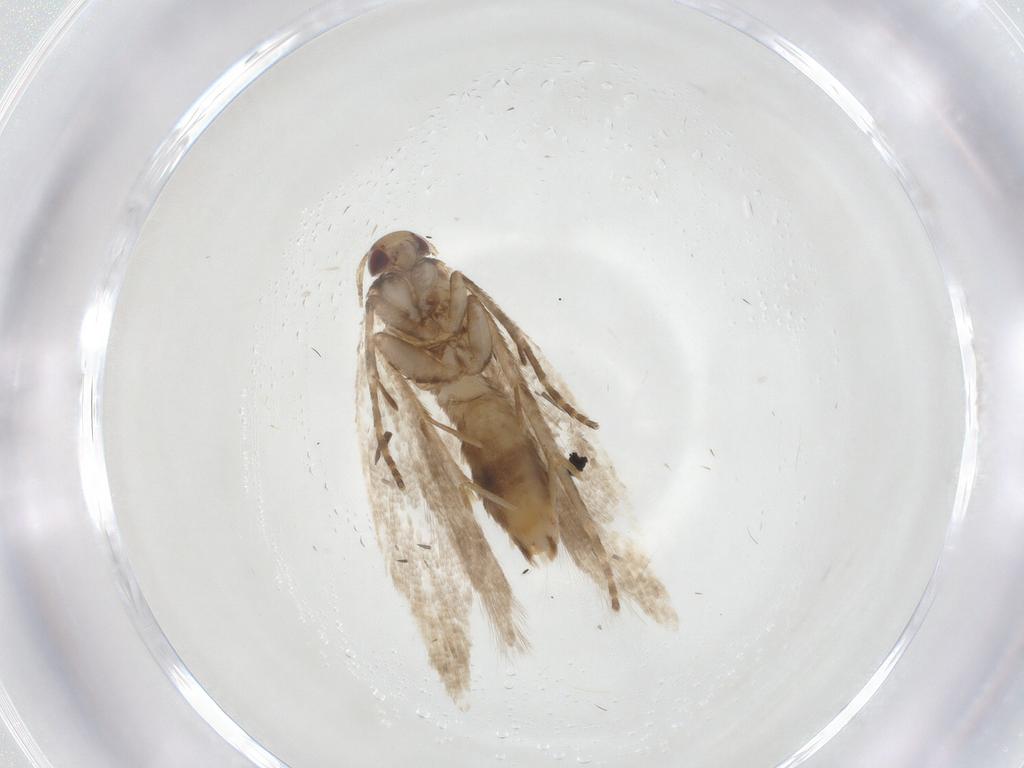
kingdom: Animalia
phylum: Arthropoda
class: Insecta
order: Lepidoptera
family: Gelechiidae
